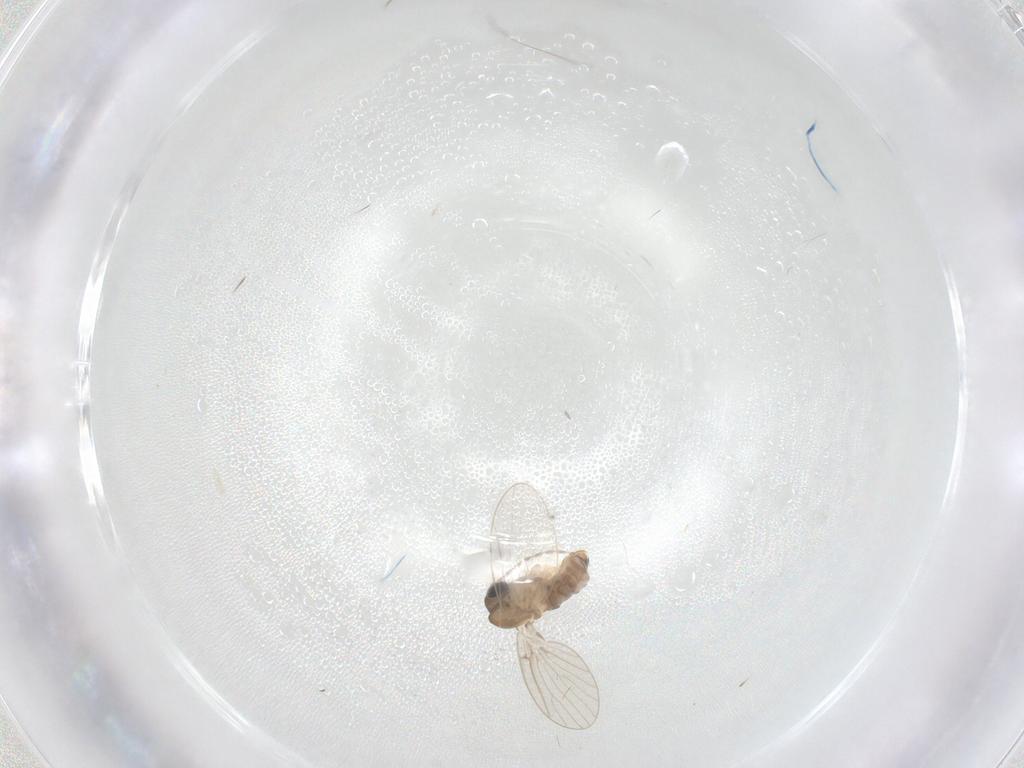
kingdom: Animalia
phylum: Arthropoda
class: Insecta
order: Diptera
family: Psychodidae
